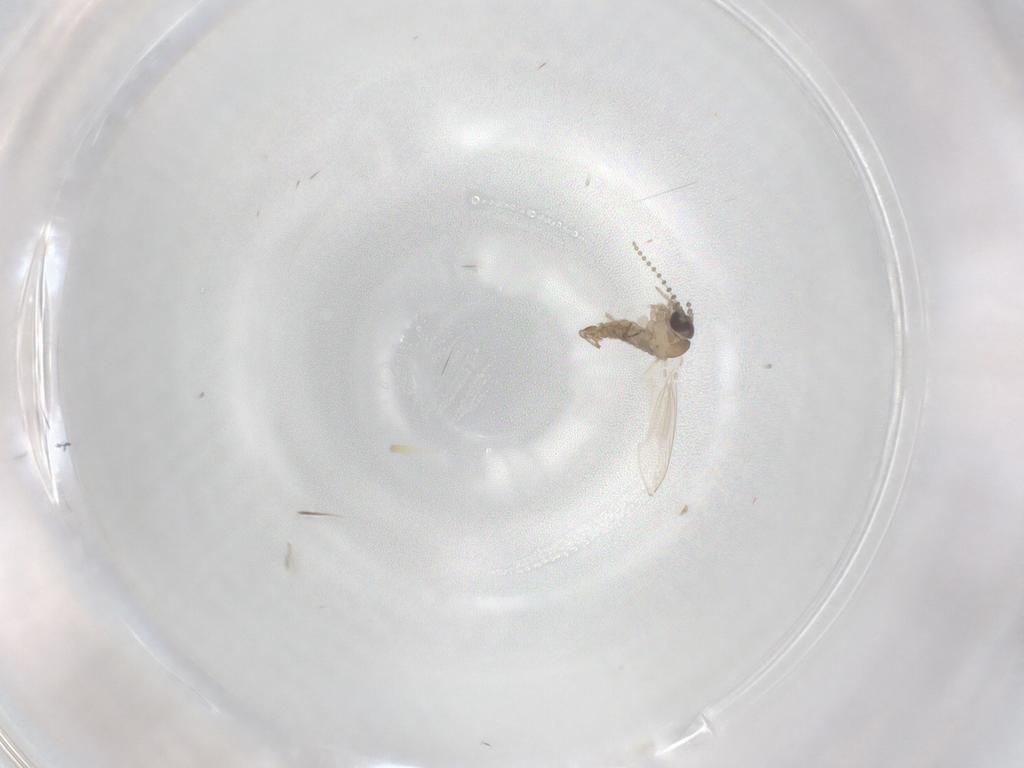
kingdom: Animalia
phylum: Arthropoda
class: Insecta
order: Diptera
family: Psychodidae
